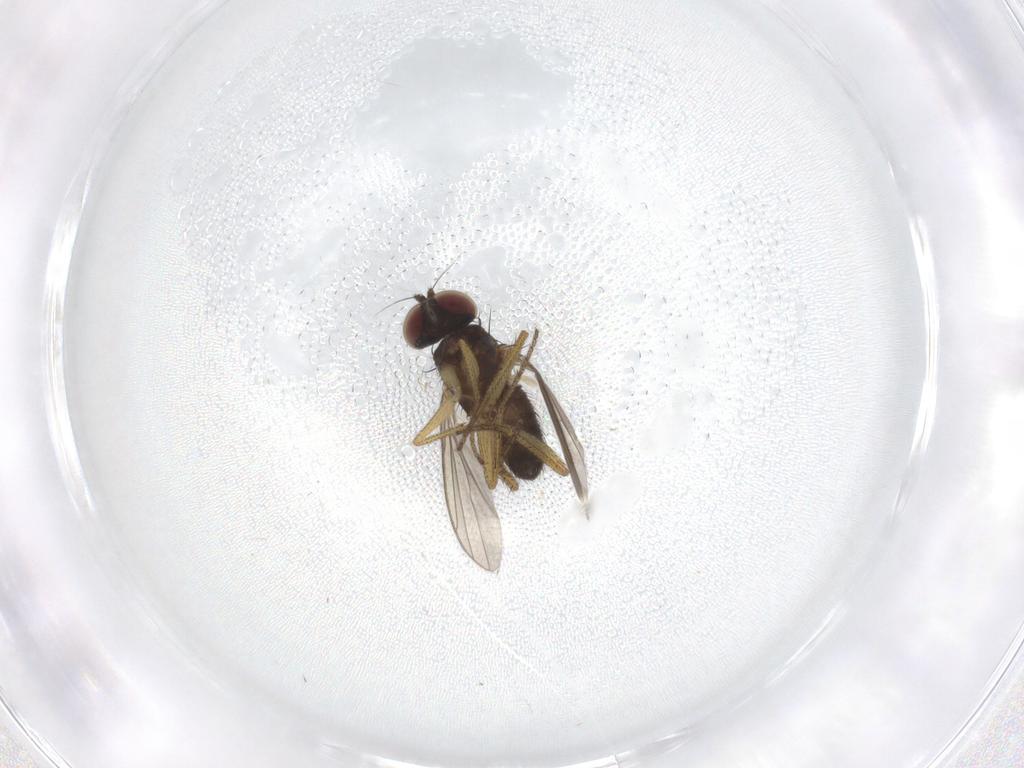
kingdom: Animalia
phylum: Arthropoda
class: Insecta
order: Diptera
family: Dolichopodidae
